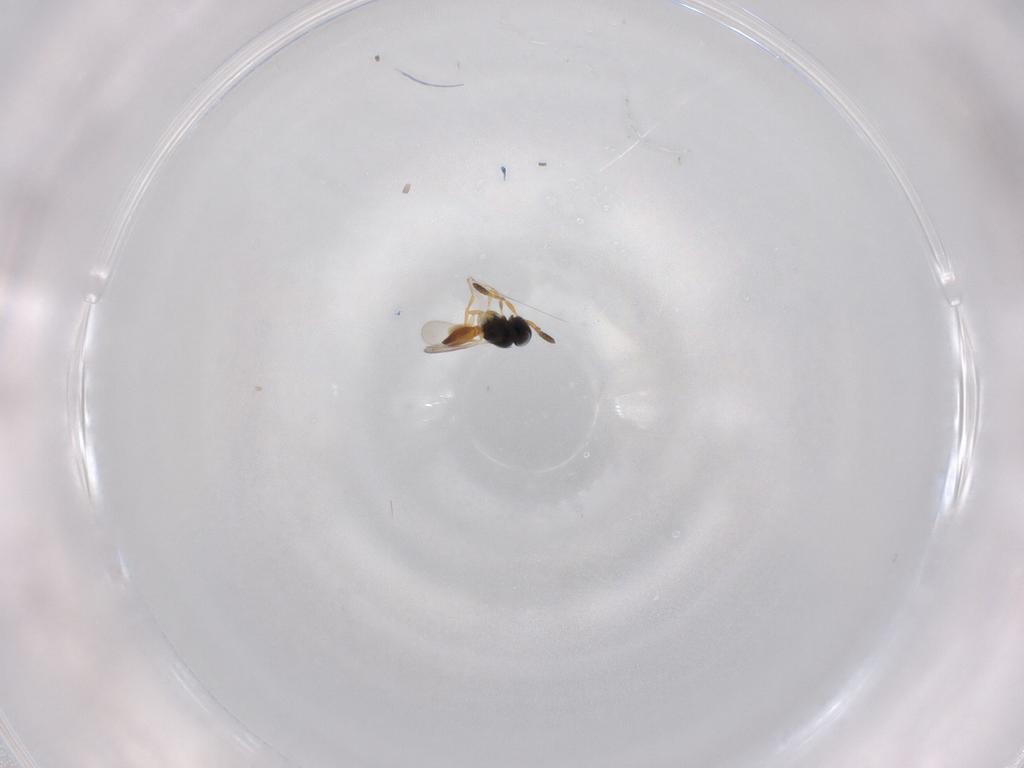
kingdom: Animalia
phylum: Arthropoda
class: Insecta
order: Hymenoptera
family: Scelionidae
